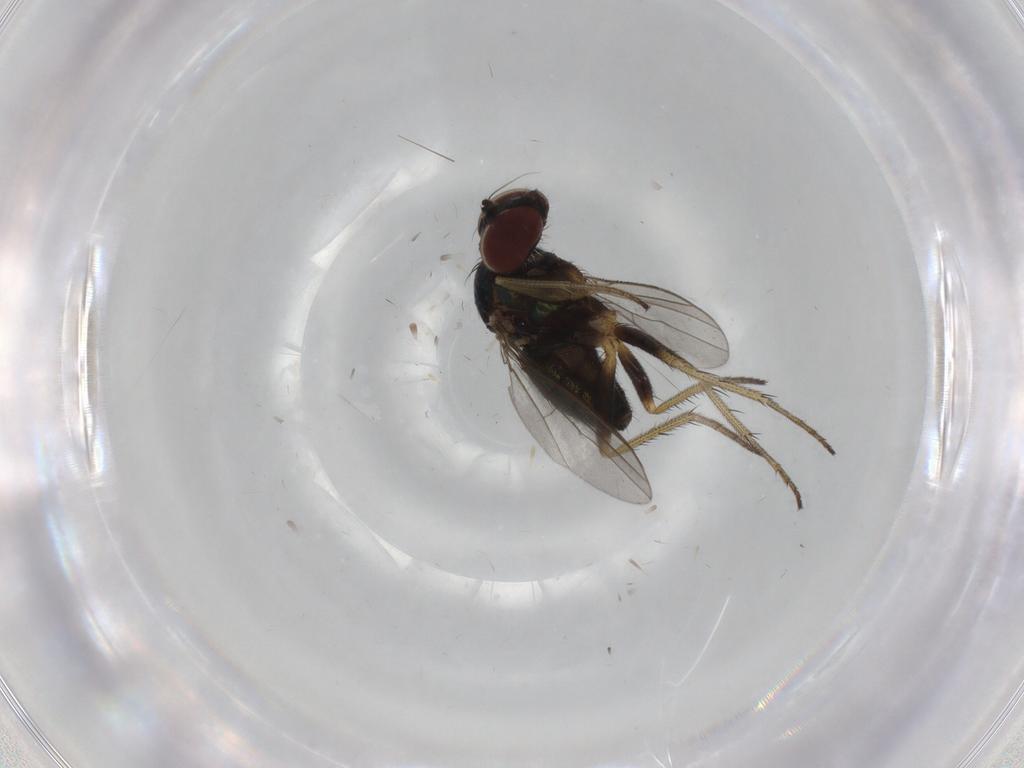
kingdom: Animalia
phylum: Arthropoda
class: Insecta
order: Diptera
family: Dolichopodidae
